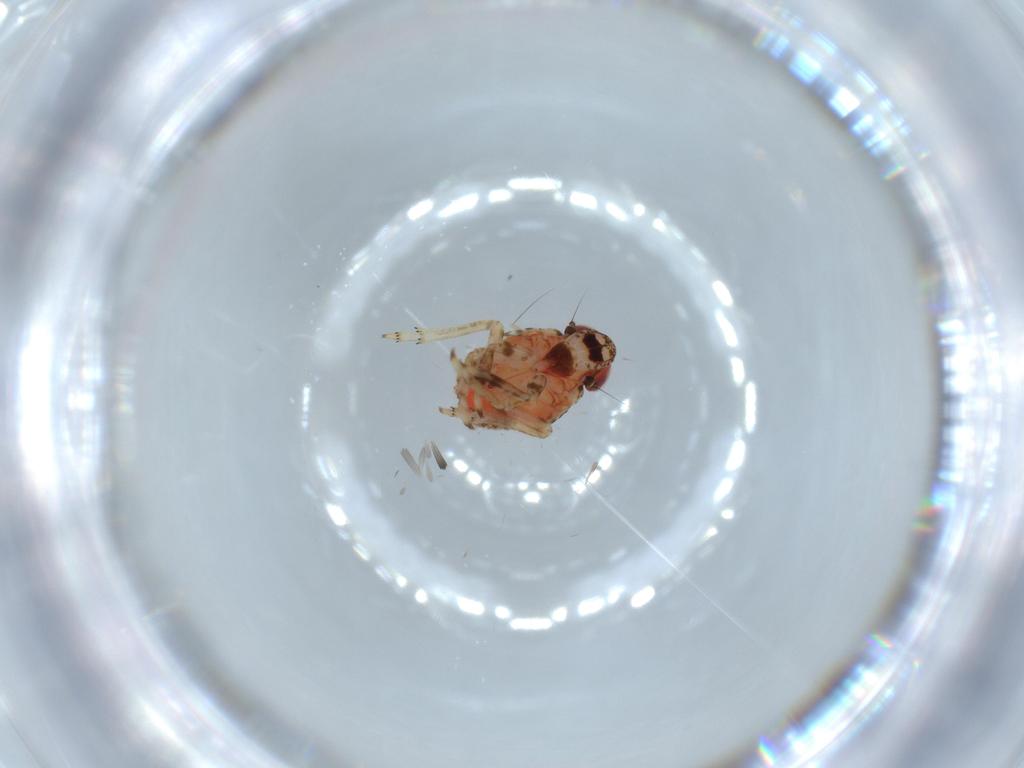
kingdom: Animalia
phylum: Arthropoda
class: Insecta
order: Hemiptera
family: Issidae
